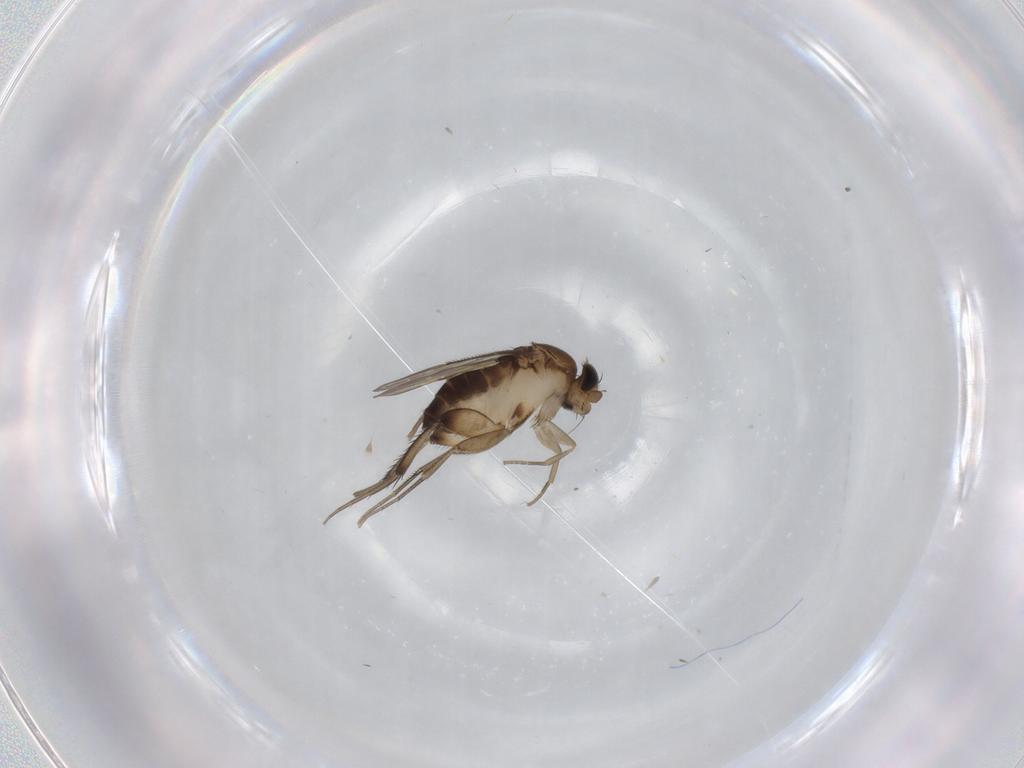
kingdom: Animalia
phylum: Arthropoda
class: Insecta
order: Diptera
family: Phoridae
